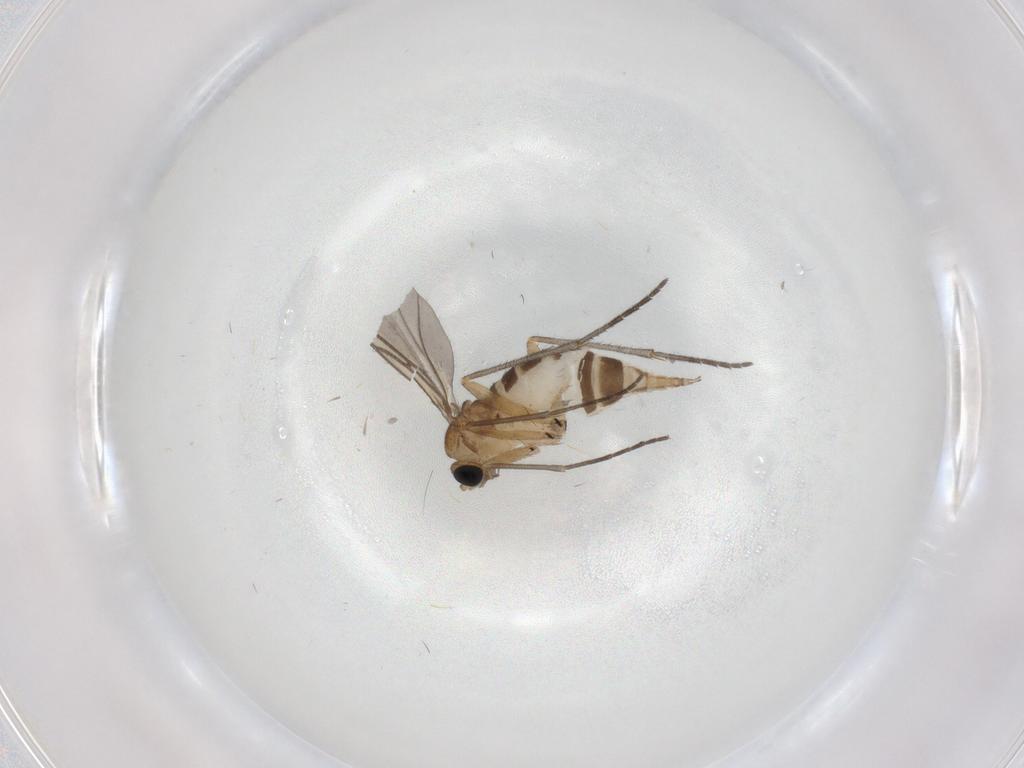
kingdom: Animalia
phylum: Arthropoda
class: Insecta
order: Diptera
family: Sciaridae
